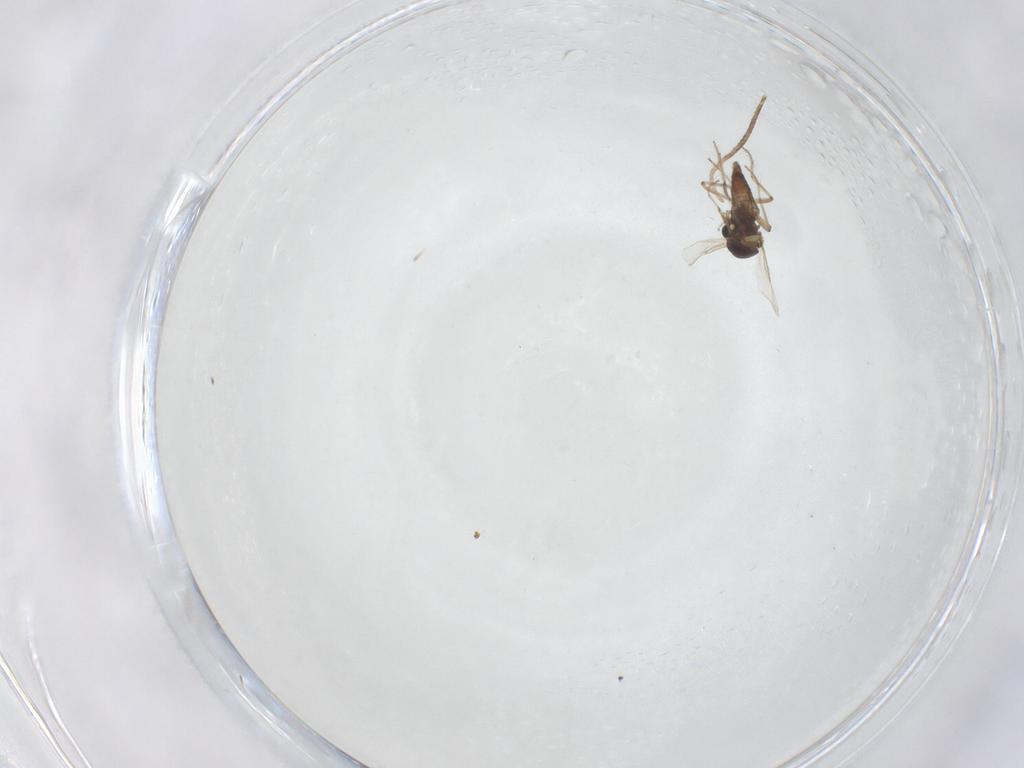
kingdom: Animalia
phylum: Arthropoda
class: Insecta
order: Diptera
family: Ceratopogonidae
